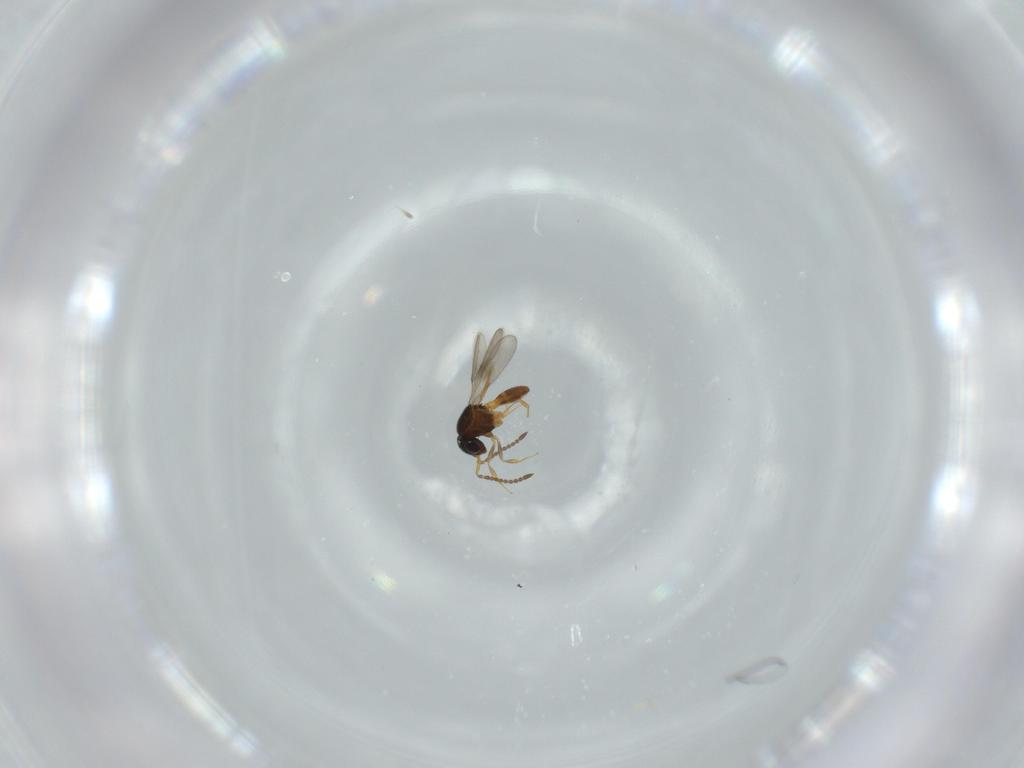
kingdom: Animalia
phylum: Arthropoda
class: Insecta
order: Hymenoptera
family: Scelionidae
